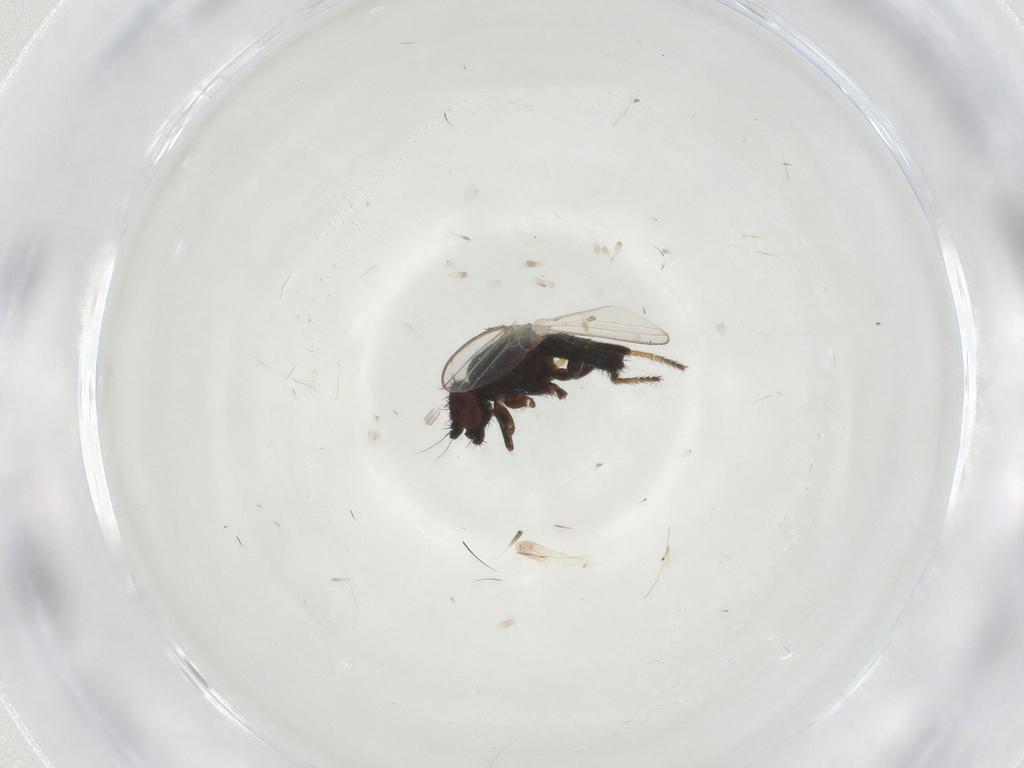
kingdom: Animalia
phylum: Arthropoda
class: Insecta
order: Diptera
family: Milichiidae
